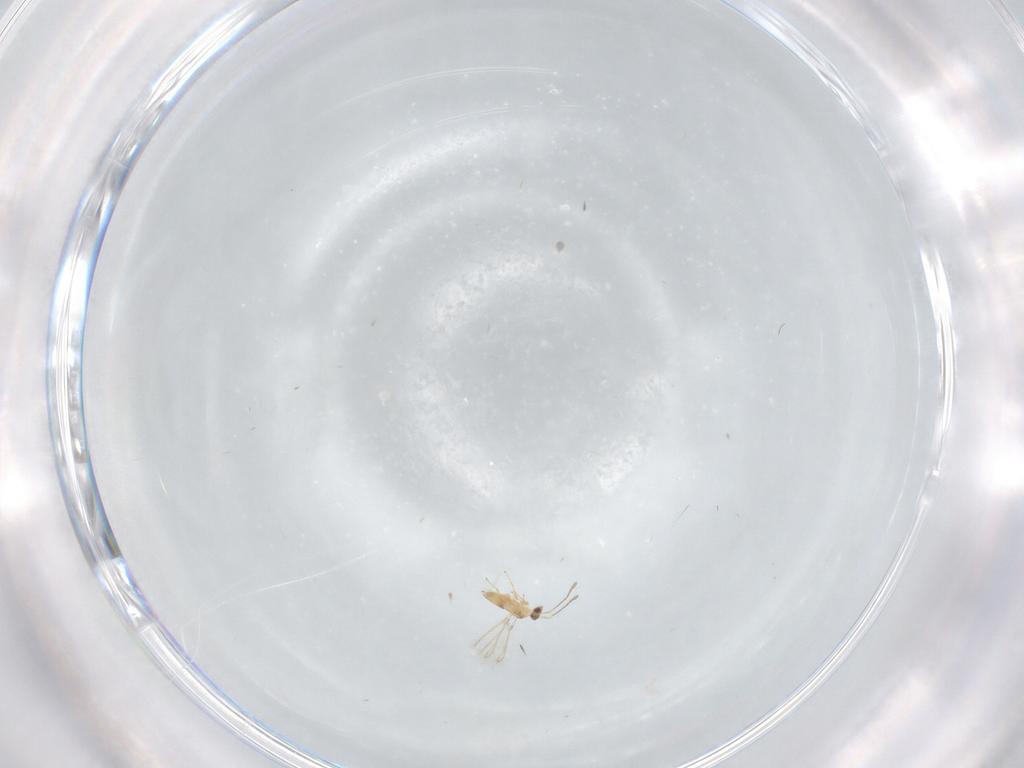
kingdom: Animalia
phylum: Arthropoda
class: Insecta
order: Hymenoptera
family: Mymaridae
